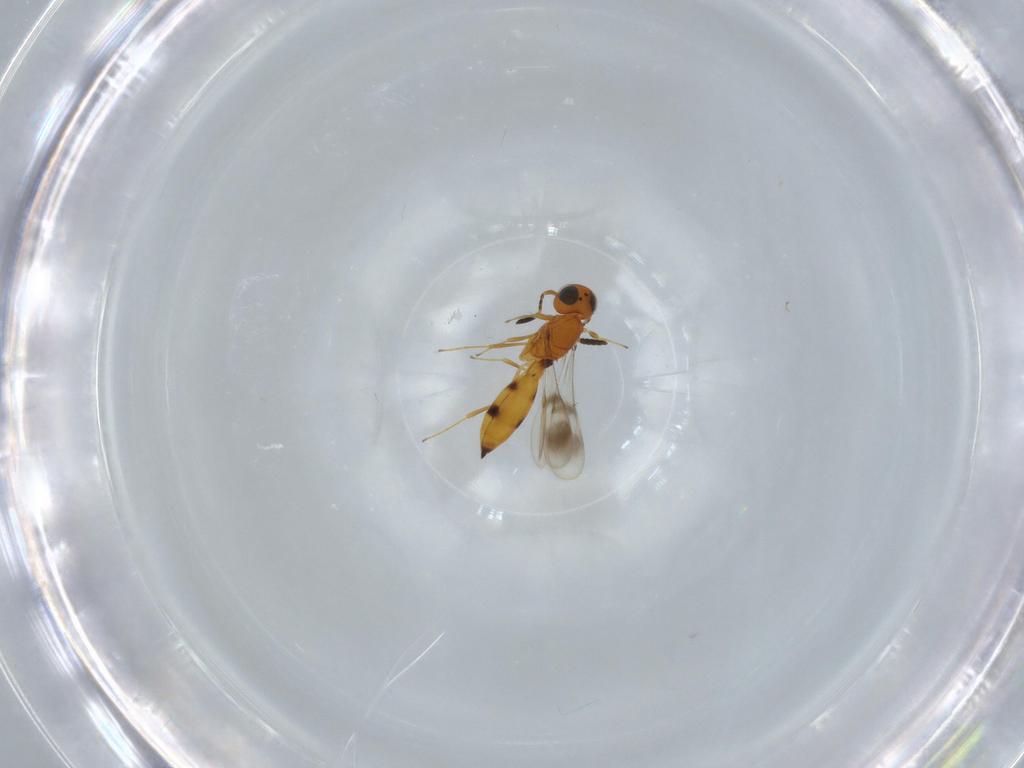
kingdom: Animalia
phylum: Arthropoda
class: Insecta
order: Hymenoptera
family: Scelionidae
